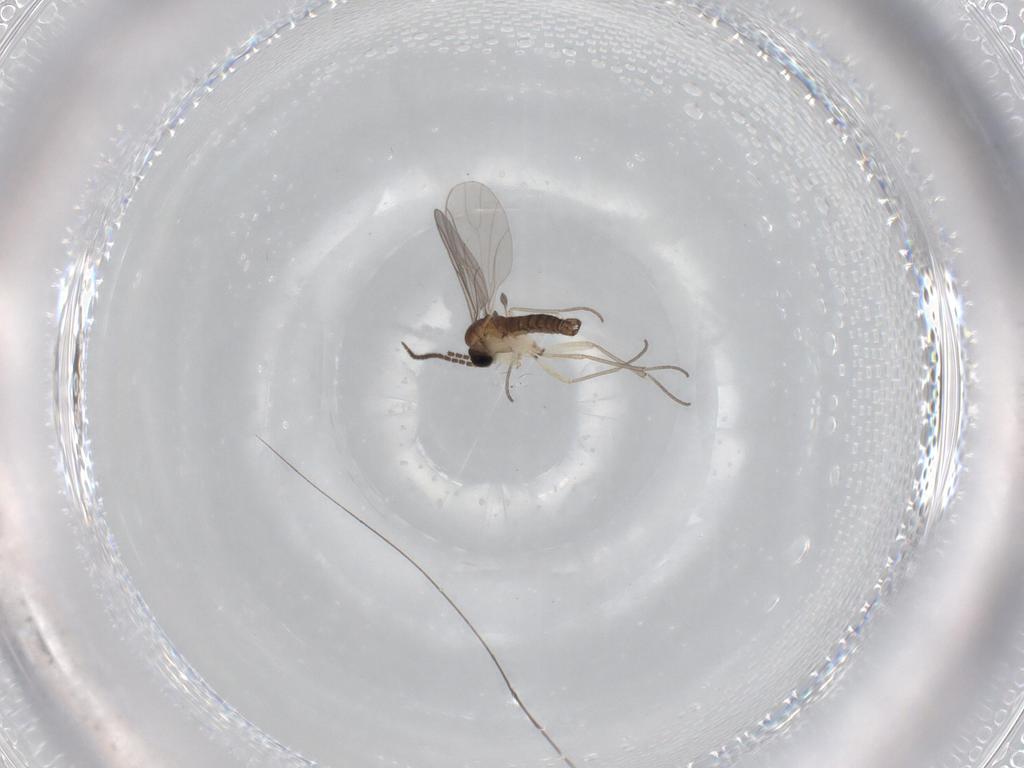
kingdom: Animalia
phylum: Arthropoda
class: Insecta
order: Diptera
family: Sciaridae
